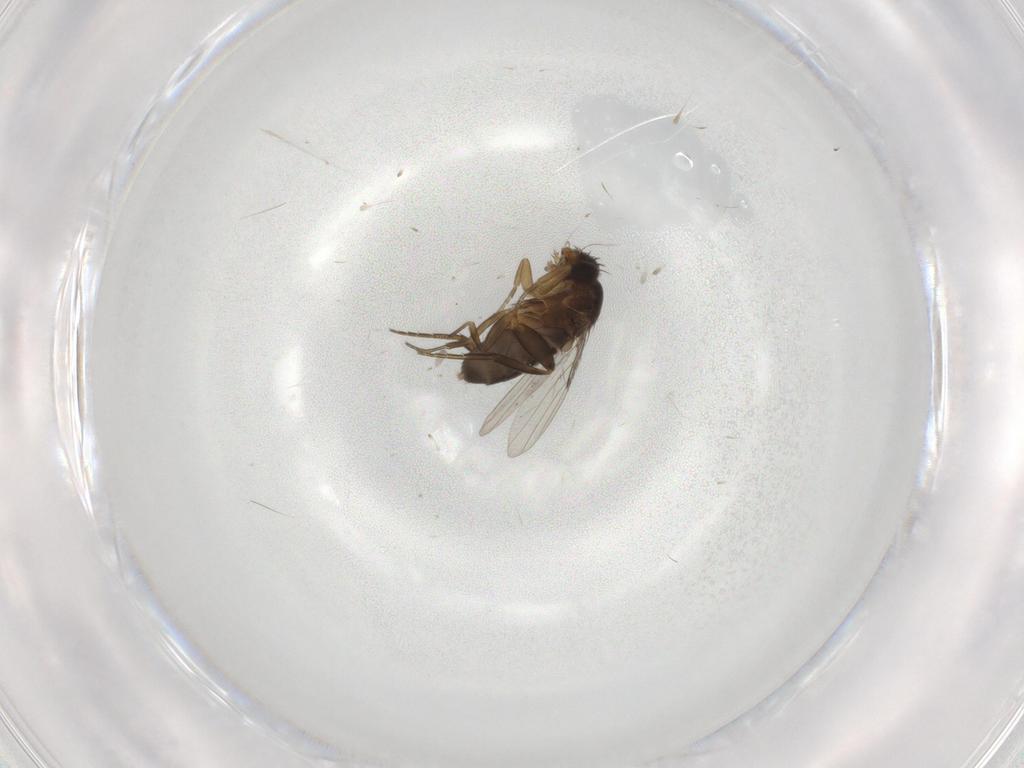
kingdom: Animalia
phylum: Arthropoda
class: Insecta
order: Diptera
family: Phoridae
